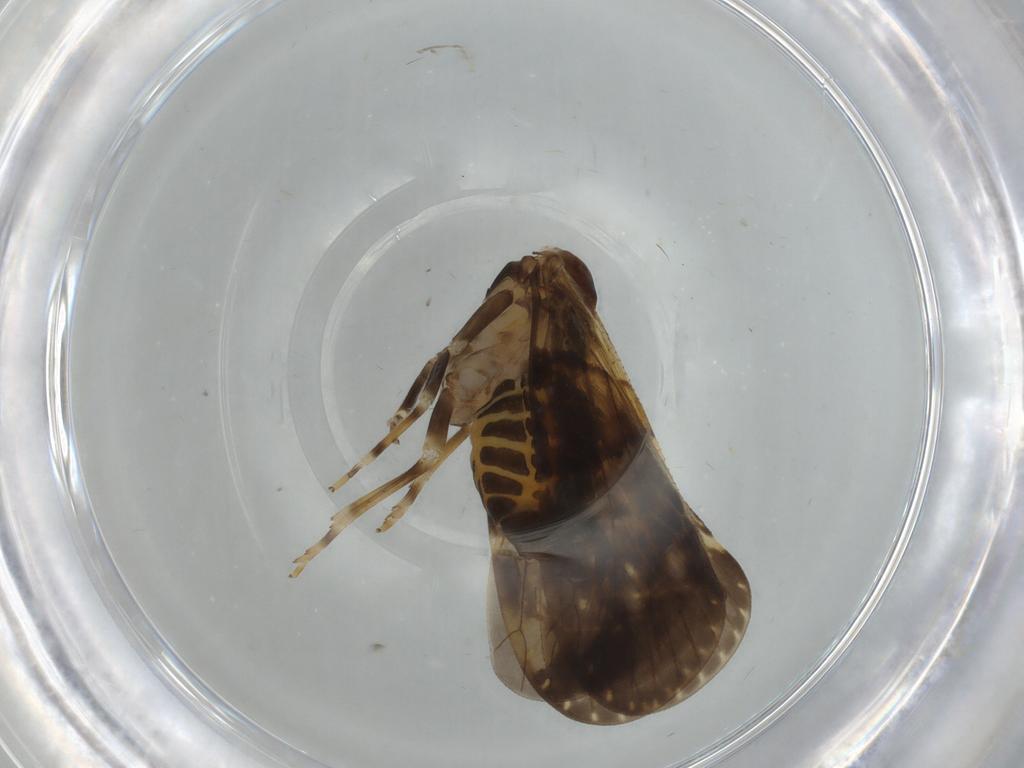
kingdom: Animalia
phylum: Arthropoda
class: Insecta
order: Hemiptera
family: Cixiidae
